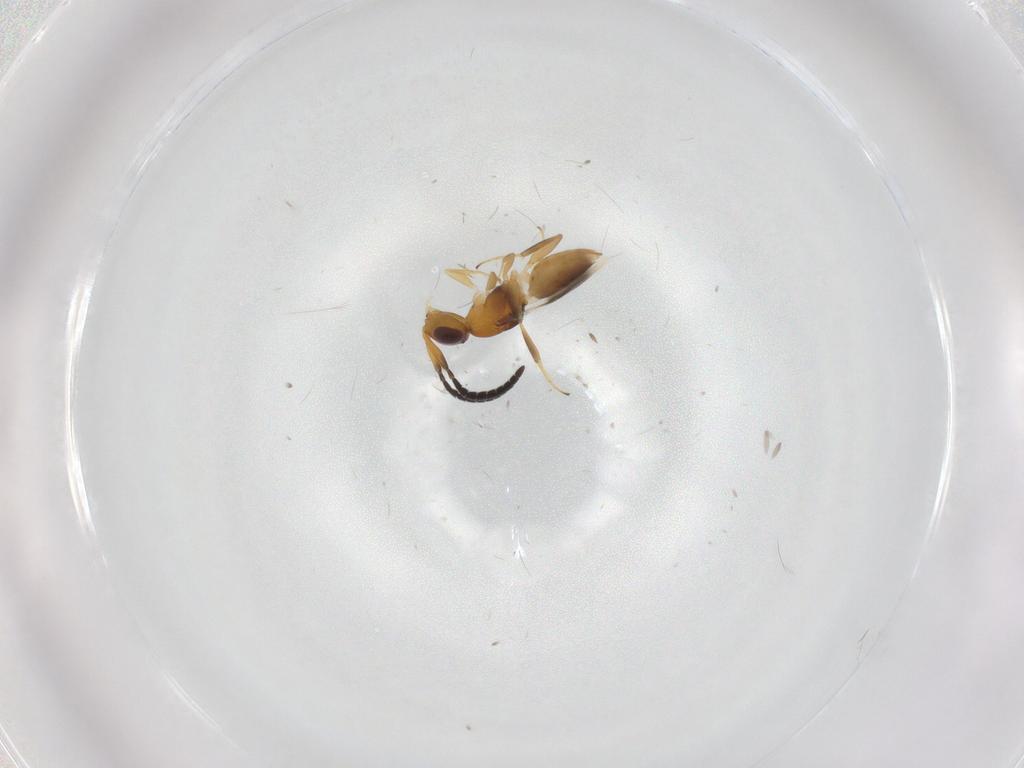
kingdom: Animalia
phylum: Arthropoda
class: Insecta
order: Hymenoptera
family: Megaspilidae
